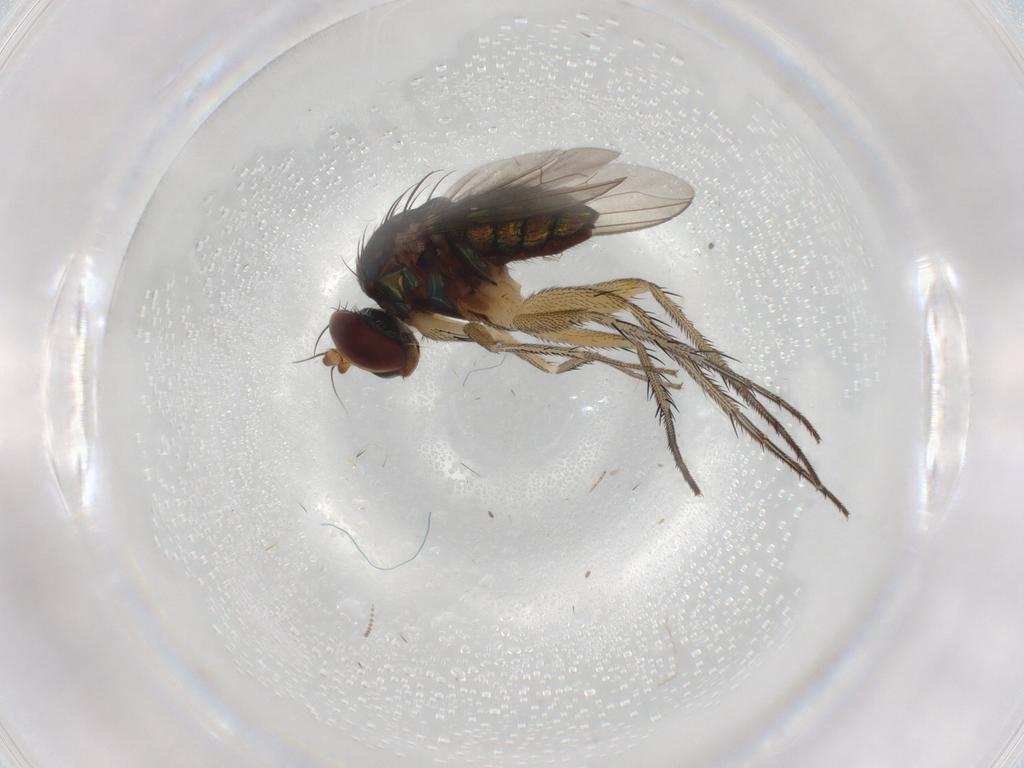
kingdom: Animalia
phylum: Arthropoda
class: Insecta
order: Diptera
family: Dolichopodidae
